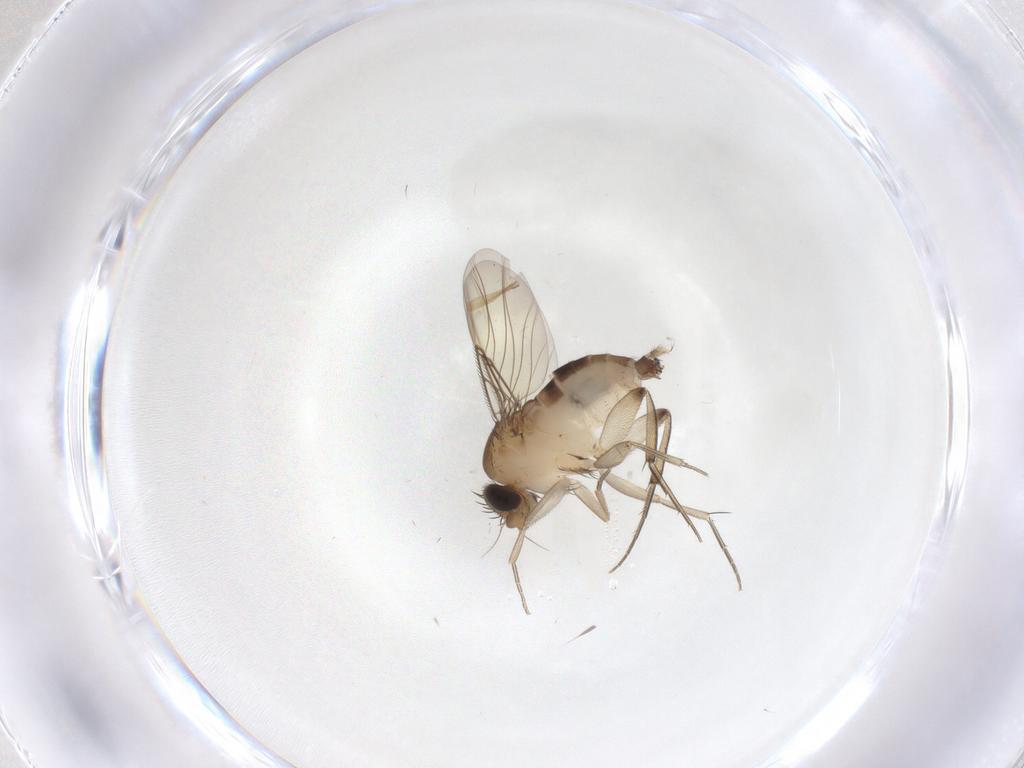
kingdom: Animalia
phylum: Arthropoda
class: Insecta
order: Diptera
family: Phoridae
